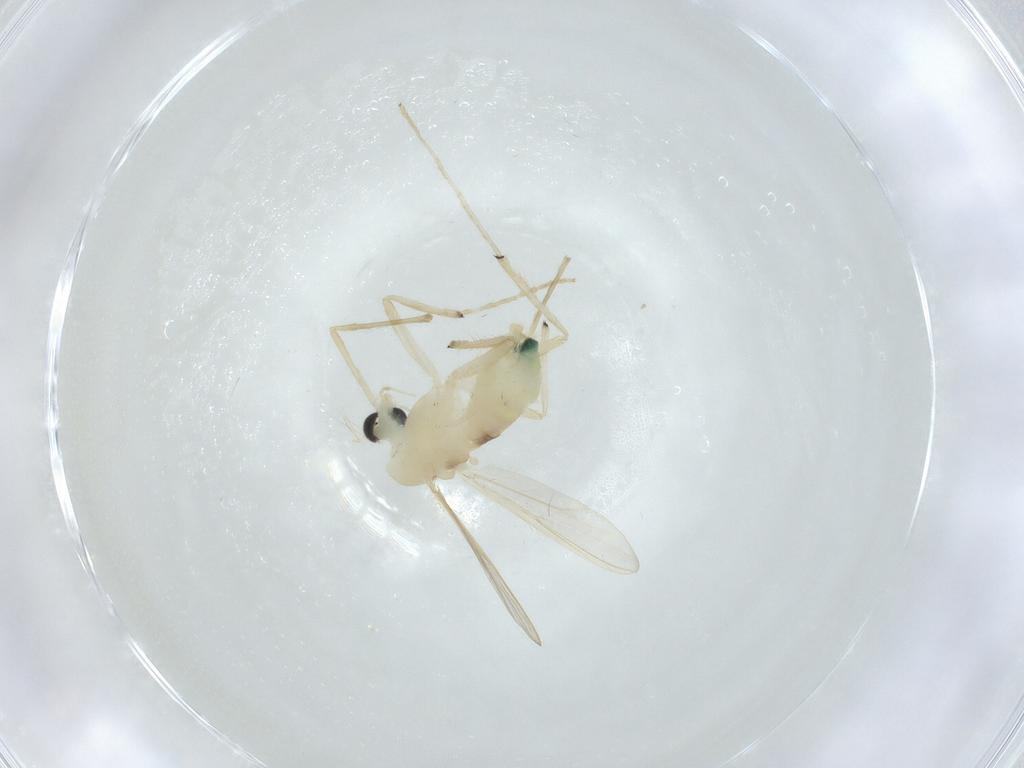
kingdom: Animalia
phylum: Arthropoda
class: Insecta
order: Diptera
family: Chironomidae
